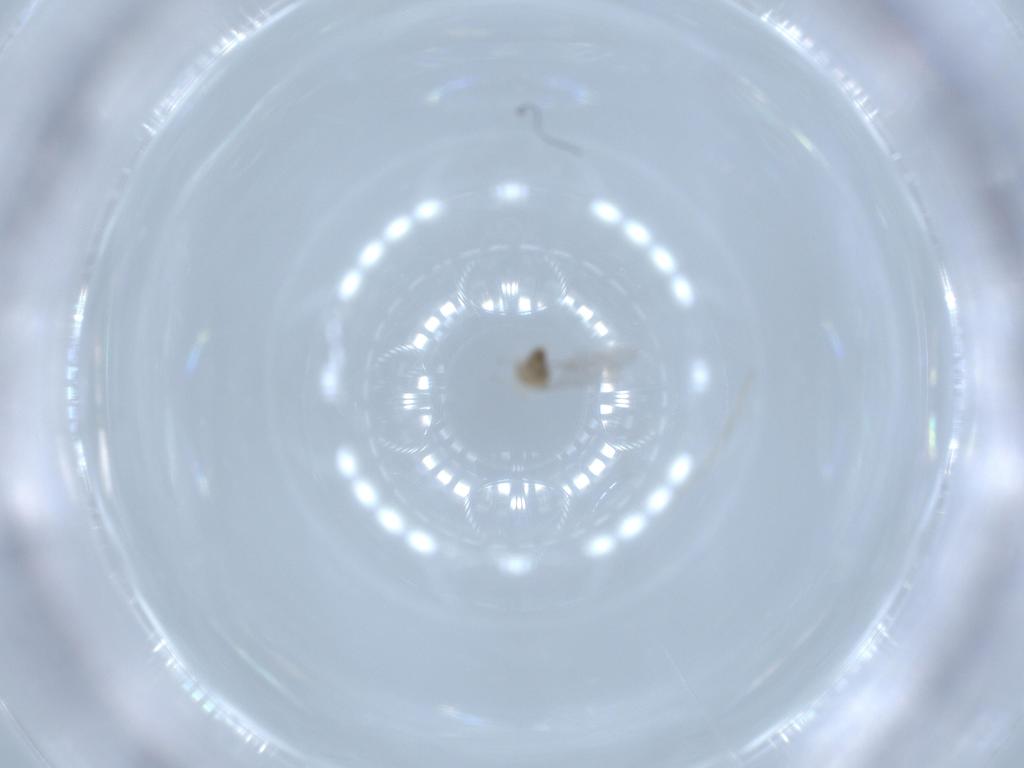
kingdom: Animalia
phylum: Arthropoda
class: Insecta
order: Diptera
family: Cecidomyiidae
